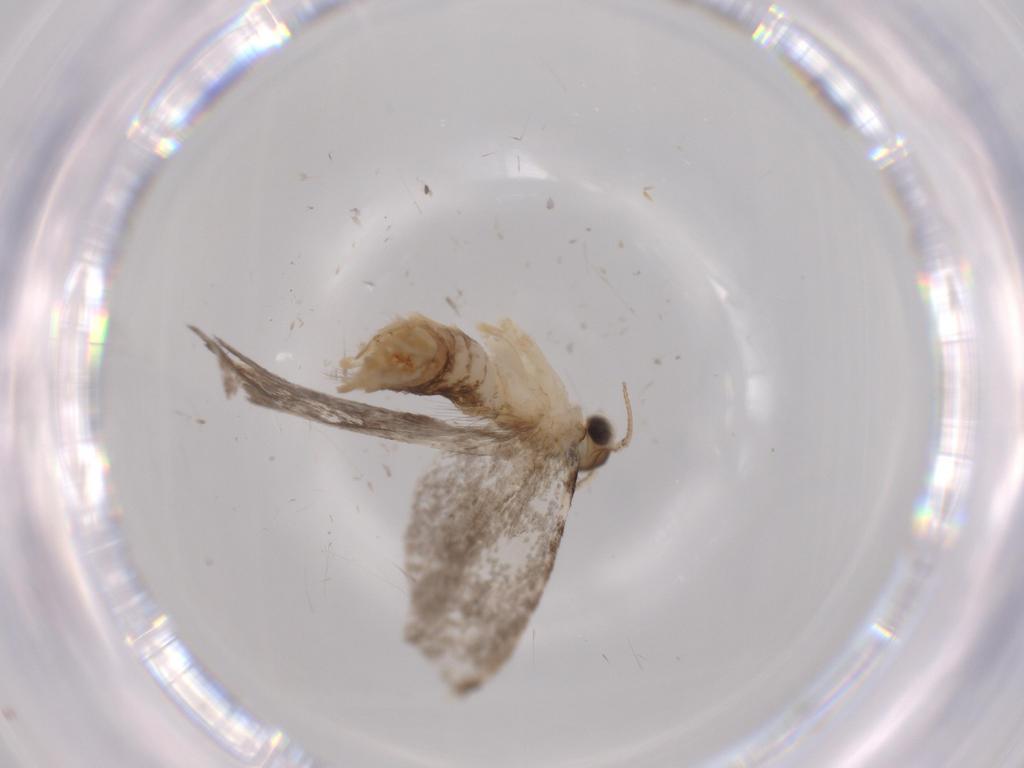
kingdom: Animalia
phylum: Arthropoda
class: Insecta
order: Lepidoptera
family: Tineidae
